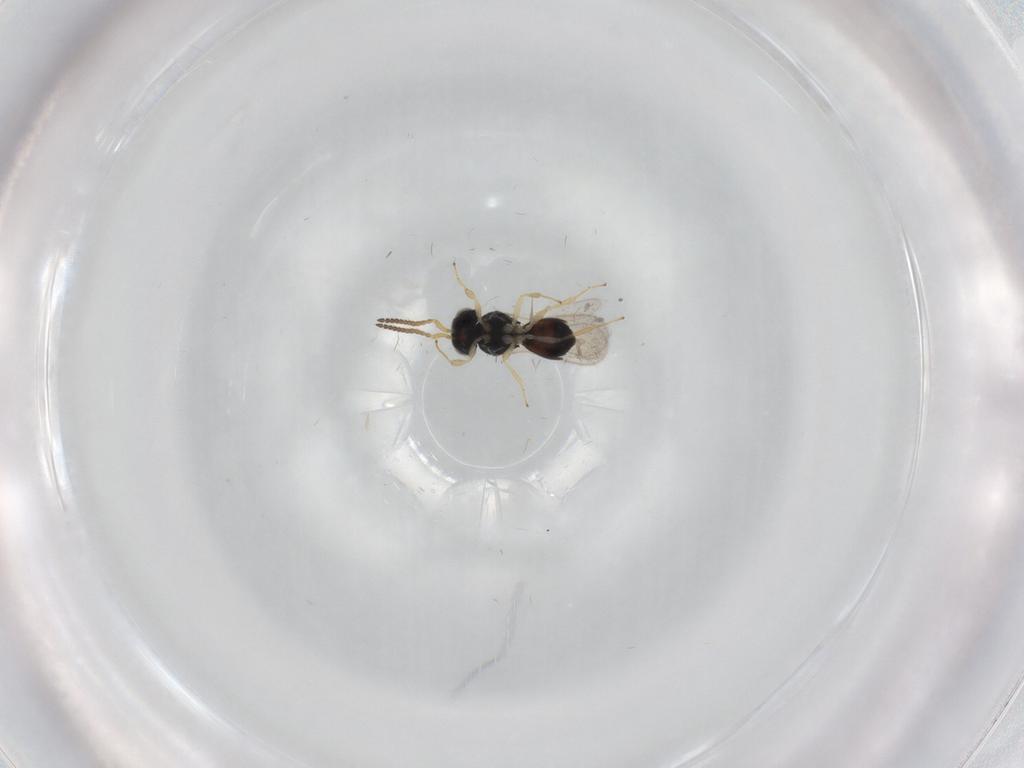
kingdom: Animalia
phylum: Arthropoda
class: Insecta
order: Hymenoptera
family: Scelionidae
